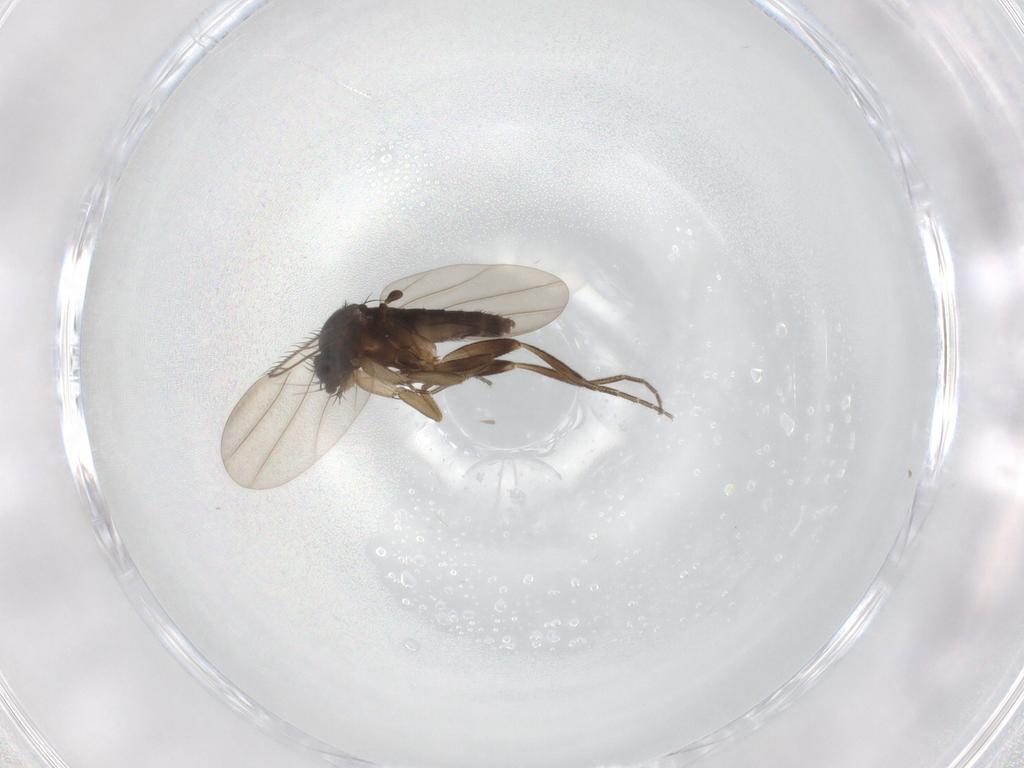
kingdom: Animalia
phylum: Arthropoda
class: Insecta
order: Diptera
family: Phoridae
